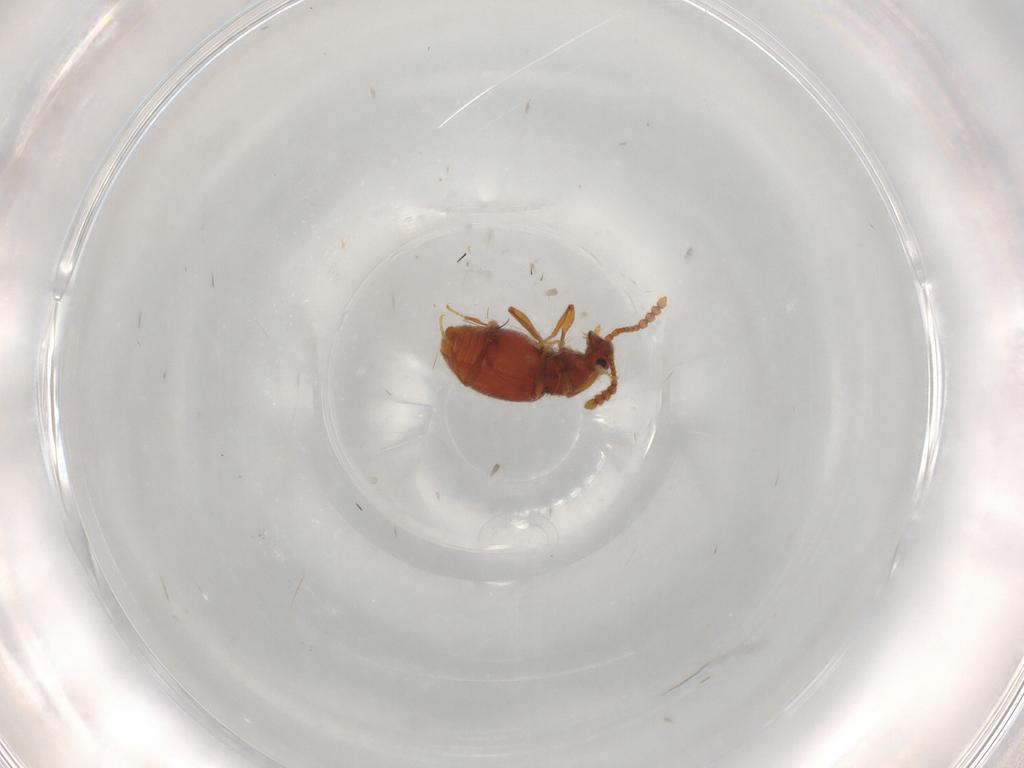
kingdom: Animalia
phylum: Arthropoda
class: Insecta
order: Coleoptera
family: Staphylinidae
